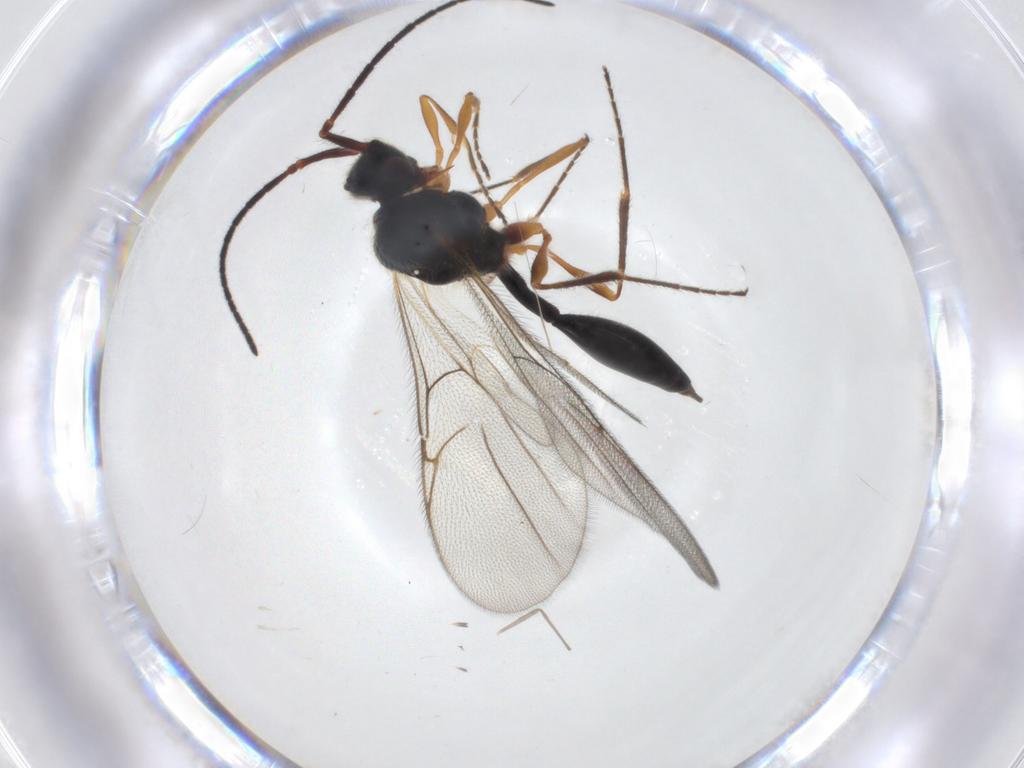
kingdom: Animalia
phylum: Arthropoda
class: Insecta
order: Hymenoptera
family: Diapriidae
